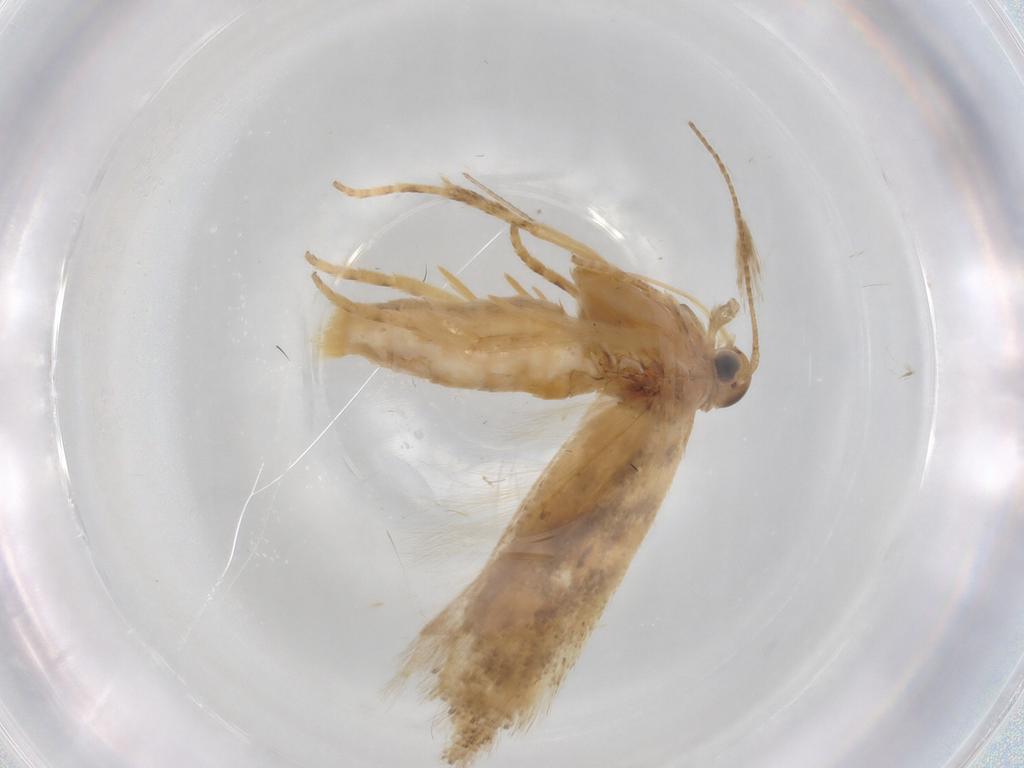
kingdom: Animalia
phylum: Arthropoda
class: Insecta
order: Lepidoptera
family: Gelechiidae
